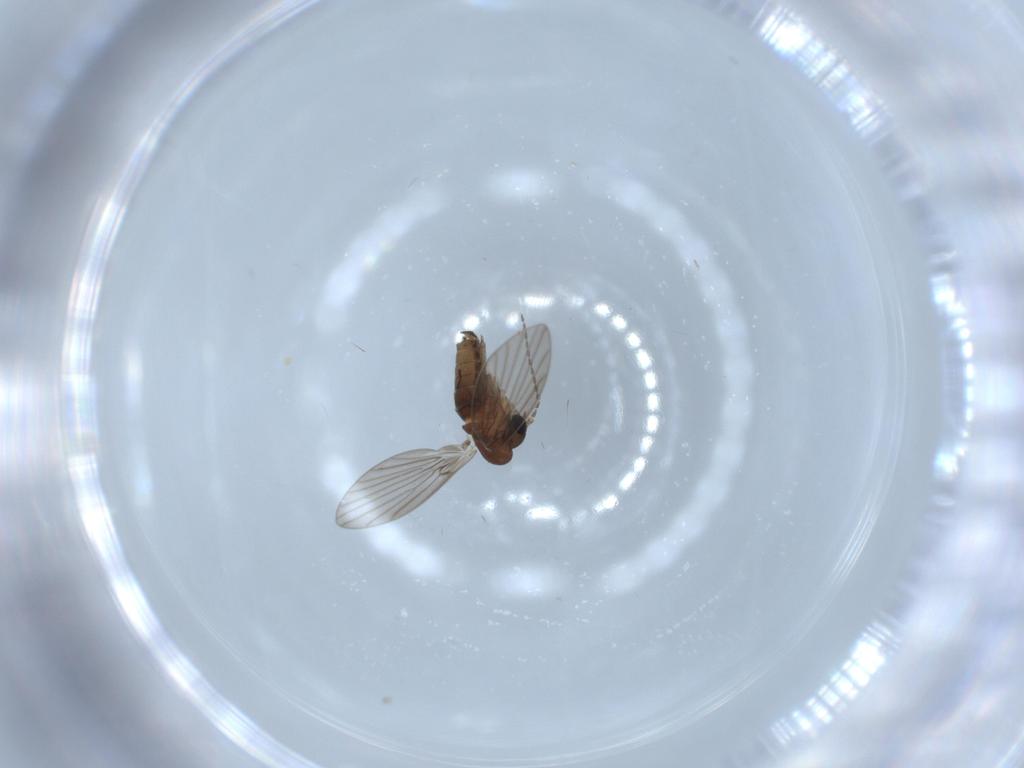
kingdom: Animalia
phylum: Arthropoda
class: Insecta
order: Diptera
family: Psychodidae
